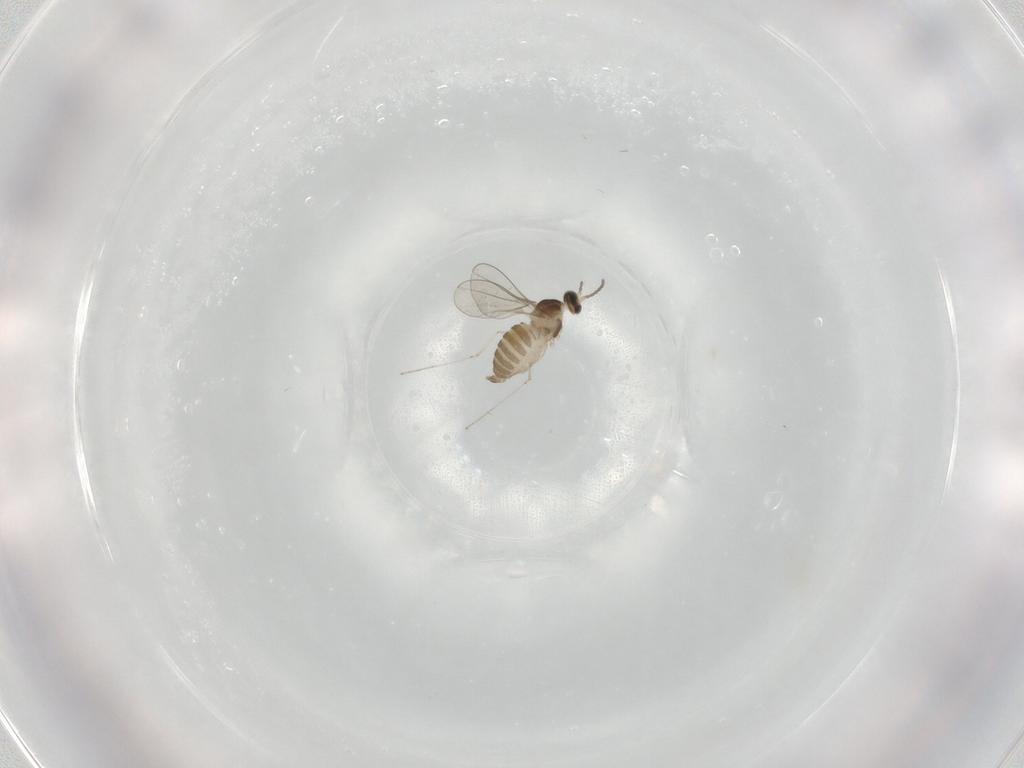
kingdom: Animalia
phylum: Arthropoda
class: Insecta
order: Diptera
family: Cecidomyiidae
